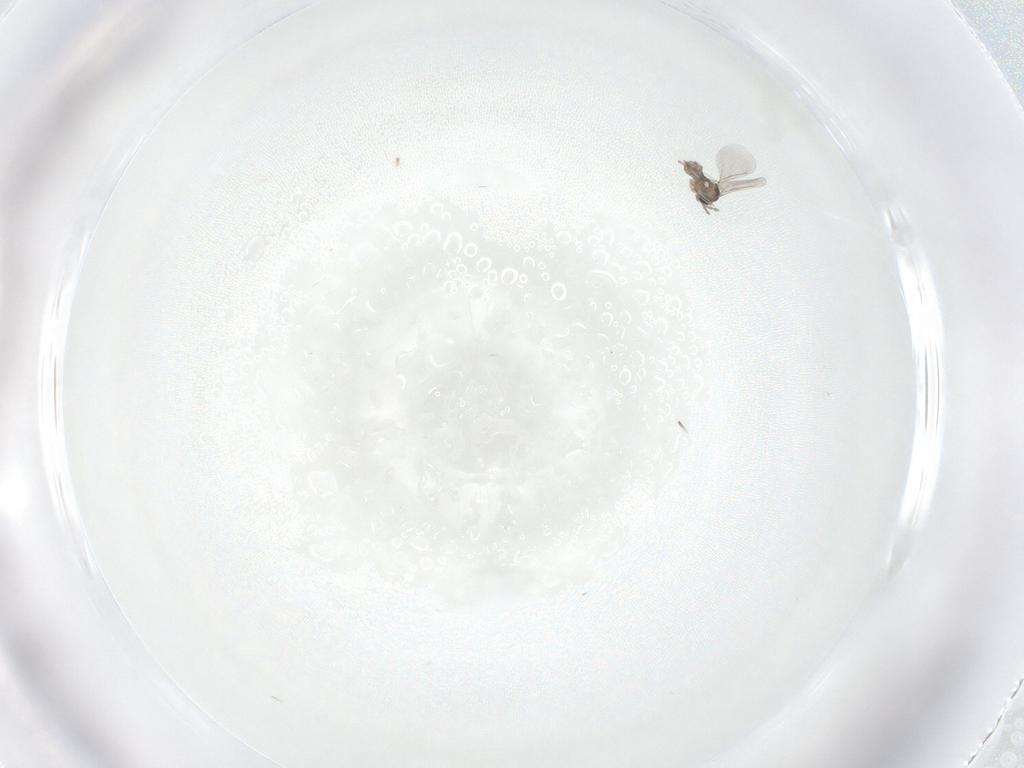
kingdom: Animalia
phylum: Arthropoda
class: Insecta
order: Diptera
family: Cecidomyiidae
